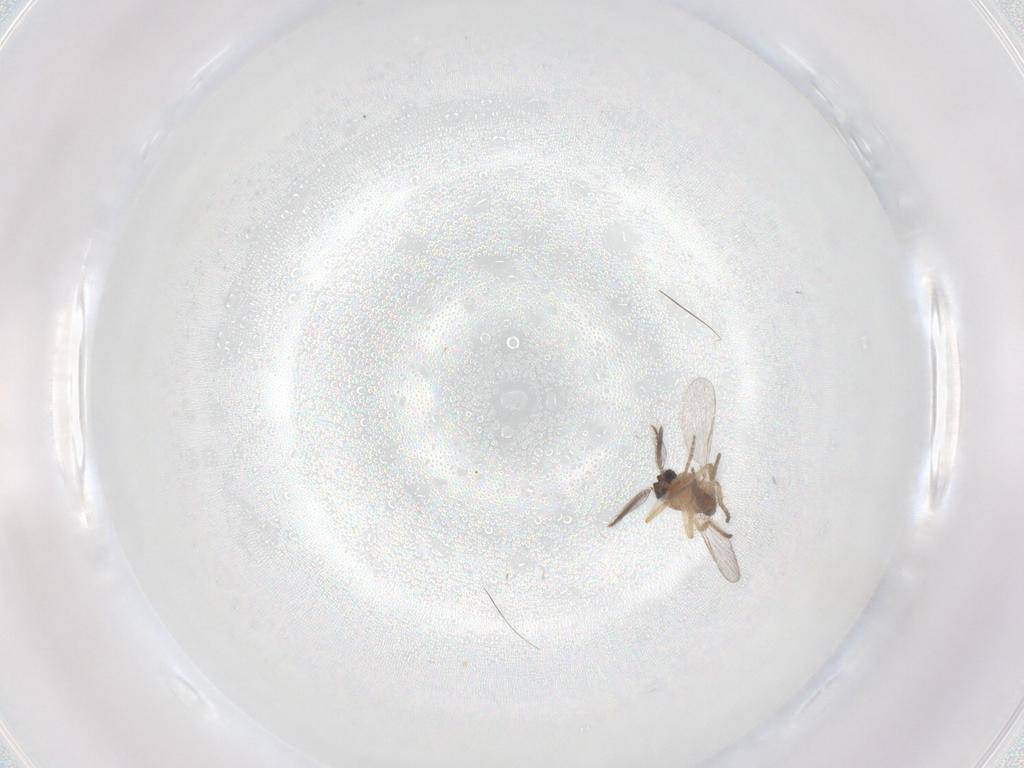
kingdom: Animalia
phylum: Arthropoda
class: Insecta
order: Diptera
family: Ceratopogonidae
